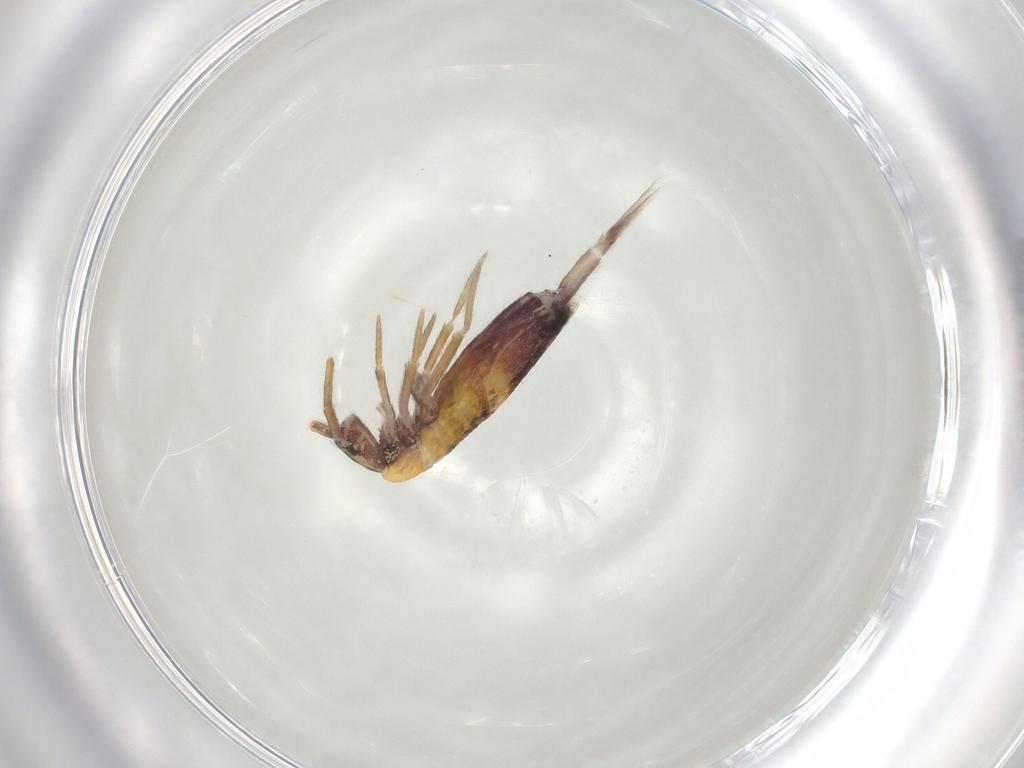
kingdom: Animalia
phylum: Arthropoda
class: Collembola
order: Entomobryomorpha
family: Entomobryidae
